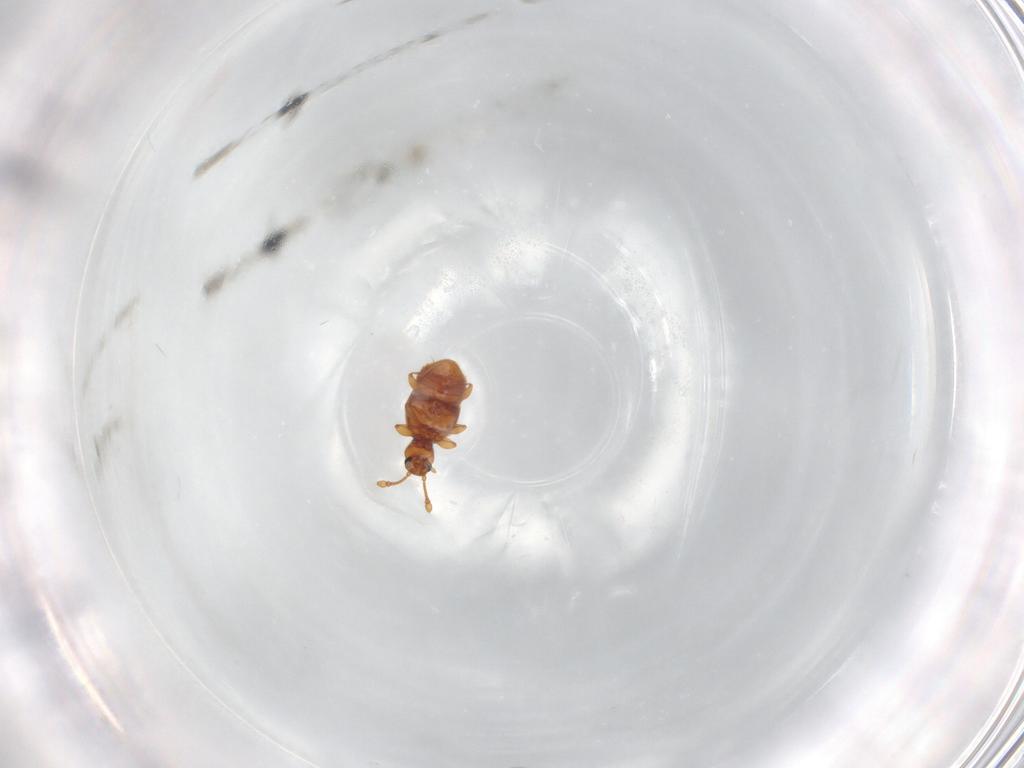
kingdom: Animalia
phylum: Arthropoda
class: Insecta
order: Coleoptera
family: Staphylinidae
